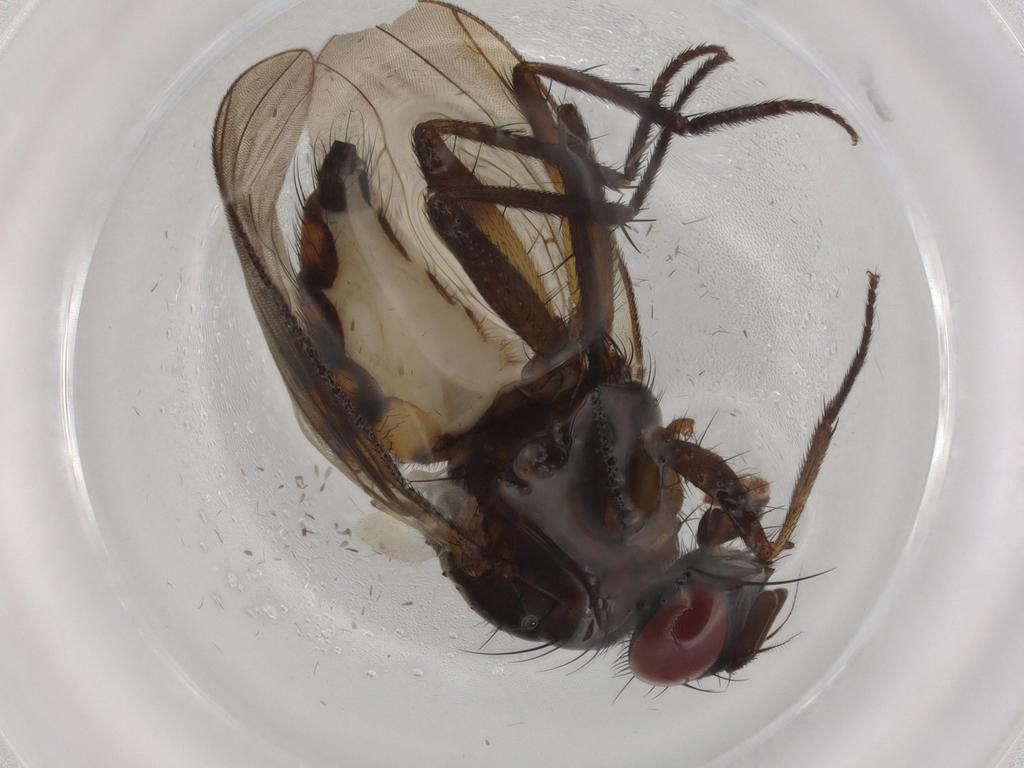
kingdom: Animalia
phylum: Arthropoda
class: Insecta
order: Diptera
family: Anthomyiidae
